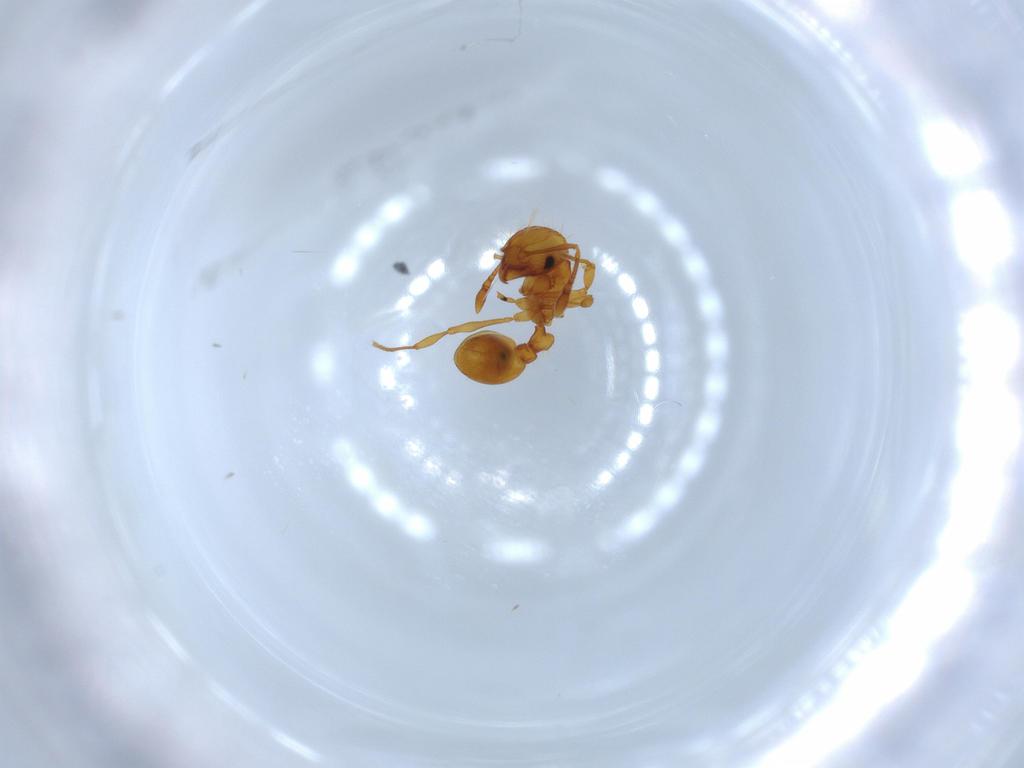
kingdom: Animalia
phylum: Arthropoda
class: Insecta
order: Hymenoptera
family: Formicidae
